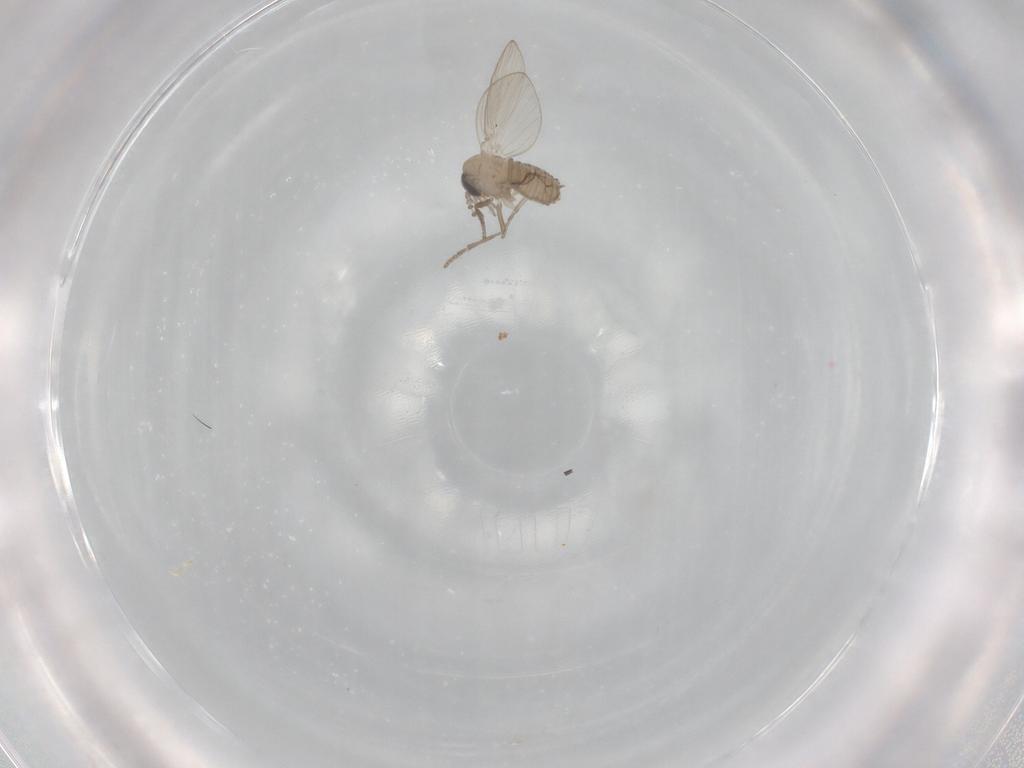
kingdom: Animalia
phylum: Arthropoda
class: Insecta
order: Diptera
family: Psychodidae
